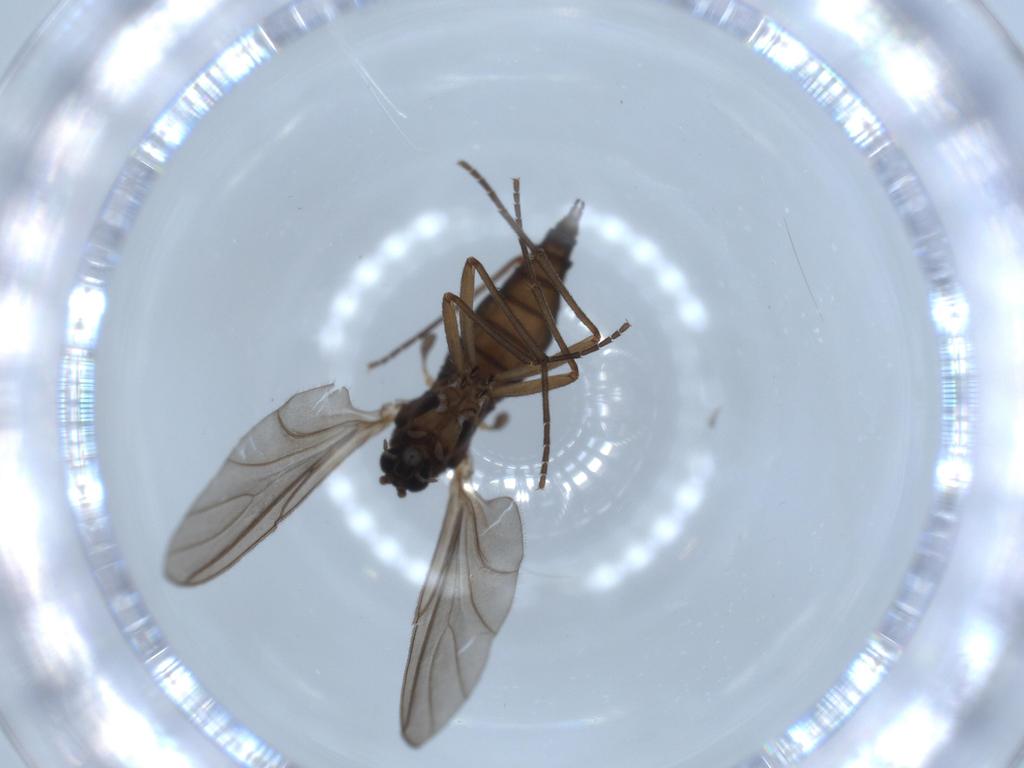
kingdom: Animalia
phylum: Arthropoda
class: Insecta
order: Diptera
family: Sciaridae
